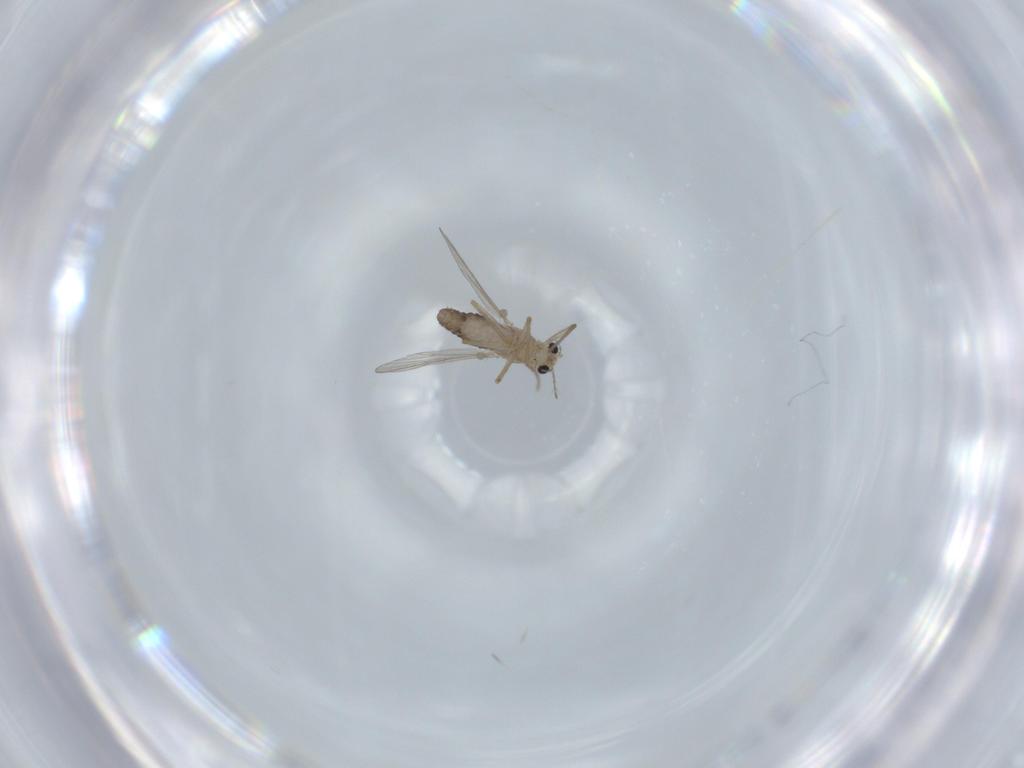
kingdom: Animalia
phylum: Arthropoda
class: Insecta
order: Diptera
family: Chironomidae
